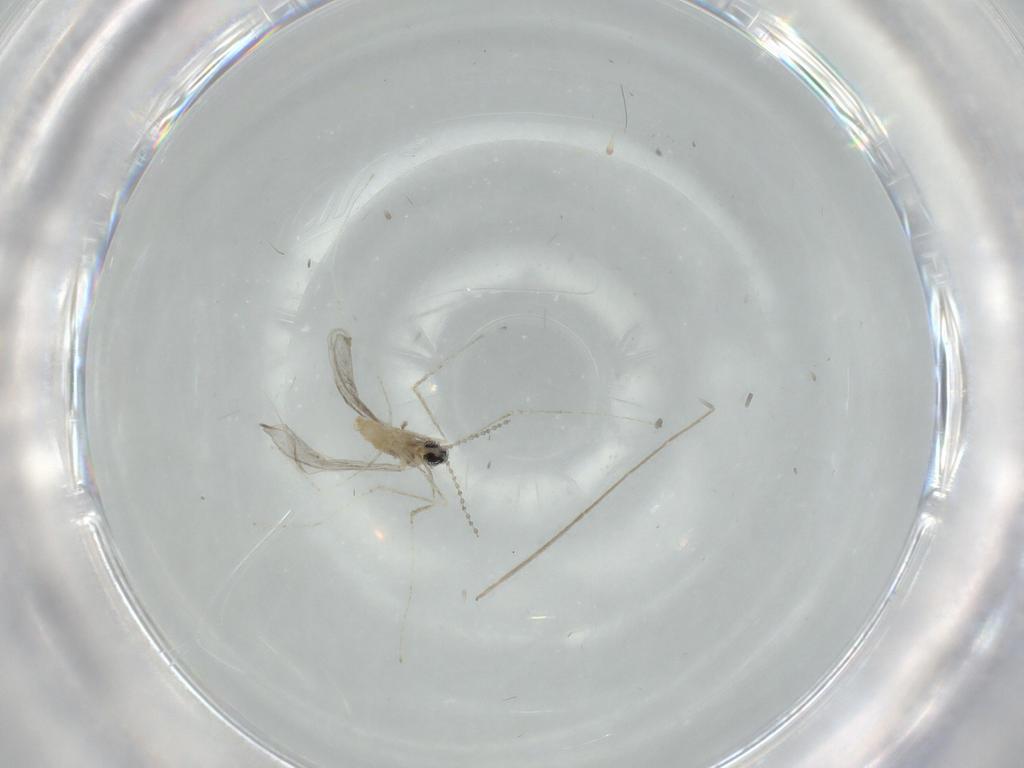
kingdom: Animalia
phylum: Arthropoda
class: Insecta
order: Diptera
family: Cecidomyiidae
